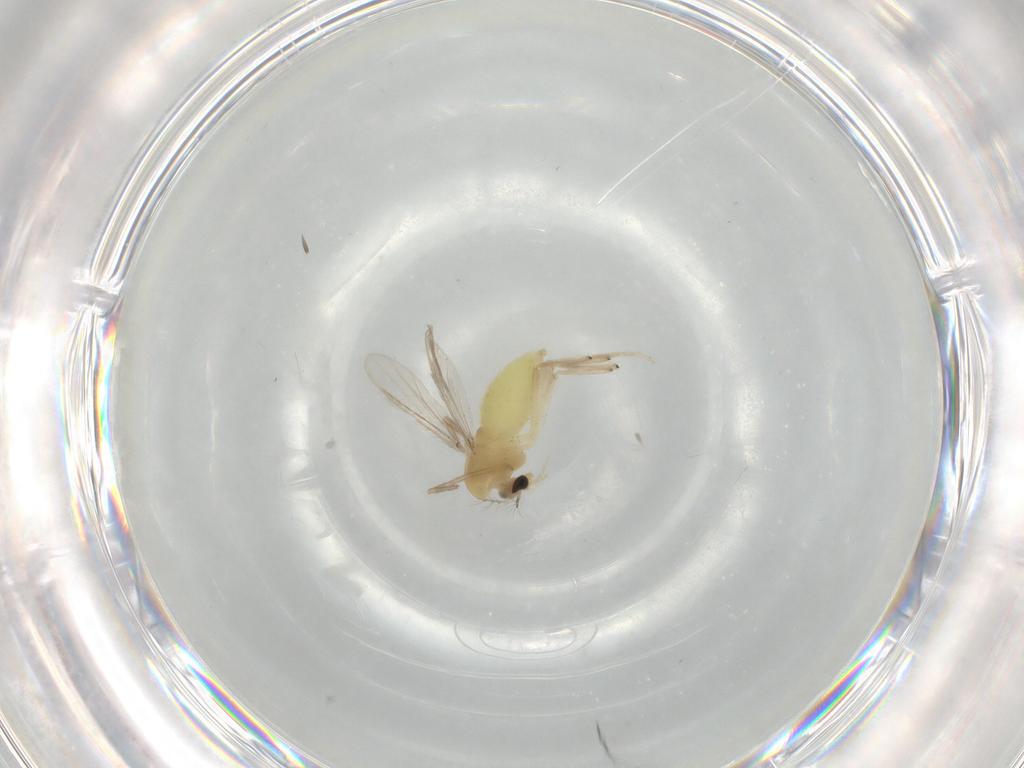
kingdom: Animalia
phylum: Arthropoda
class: Insecta
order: Diptera
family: Chironomidae
